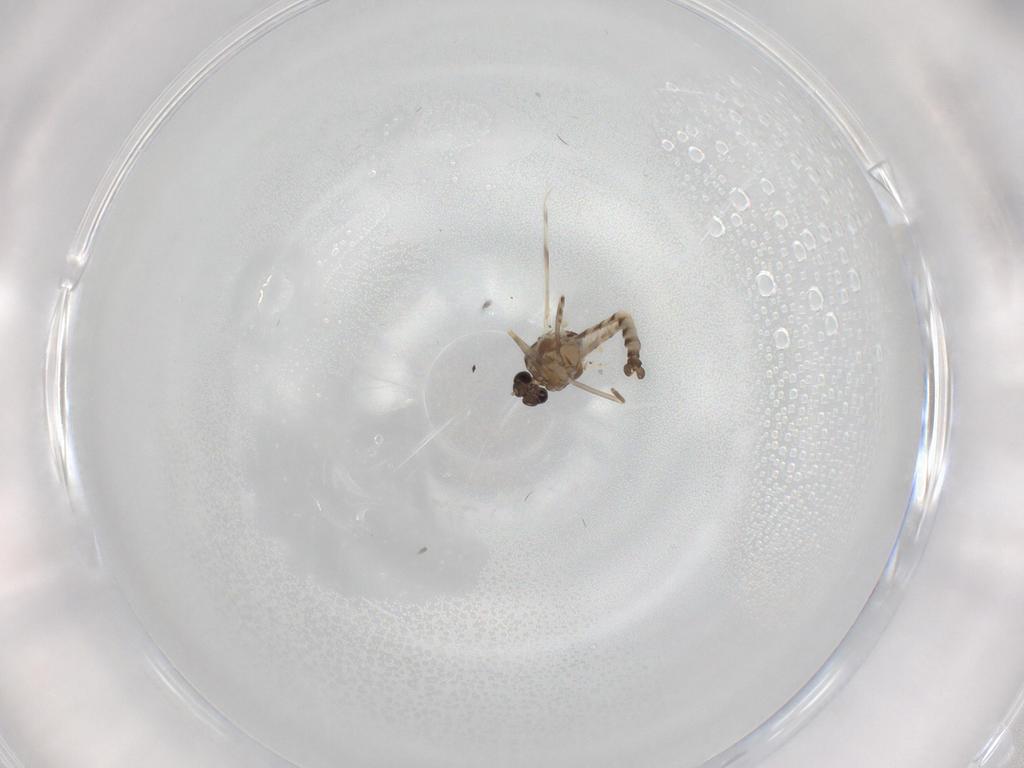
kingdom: Animalia
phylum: Arthropoda
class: Insecta
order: Diptera
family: Ceratopogonidae
